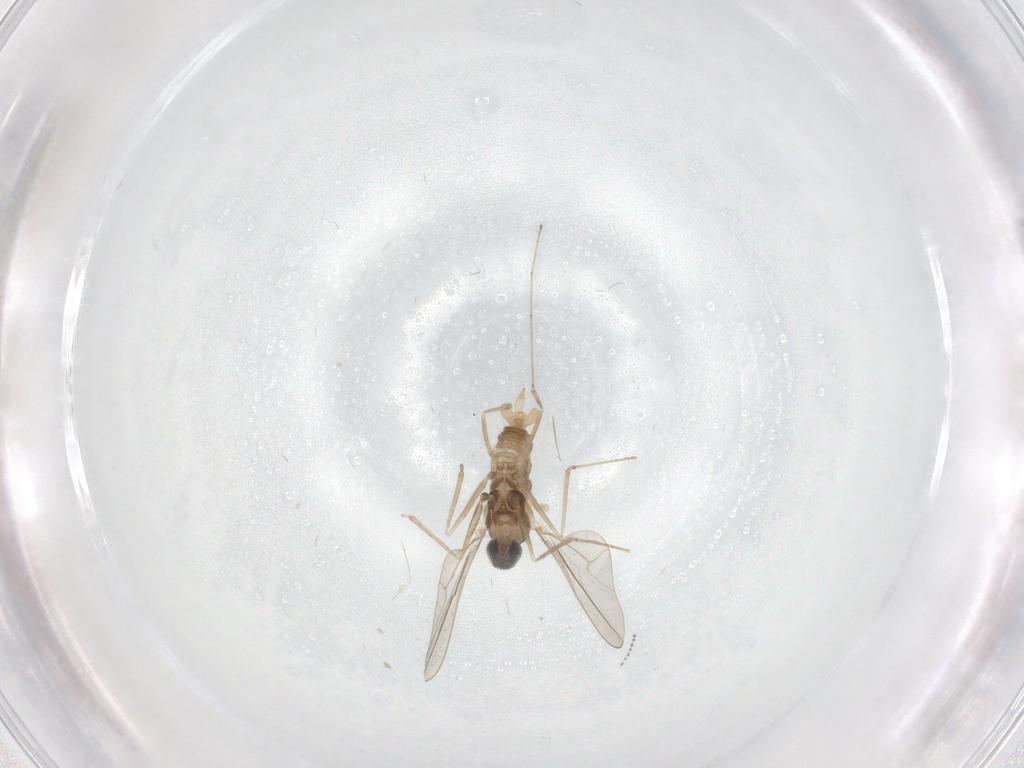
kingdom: Animalia
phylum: Arthropoda
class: Insecta
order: Diptera
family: Cecidomyiidae
